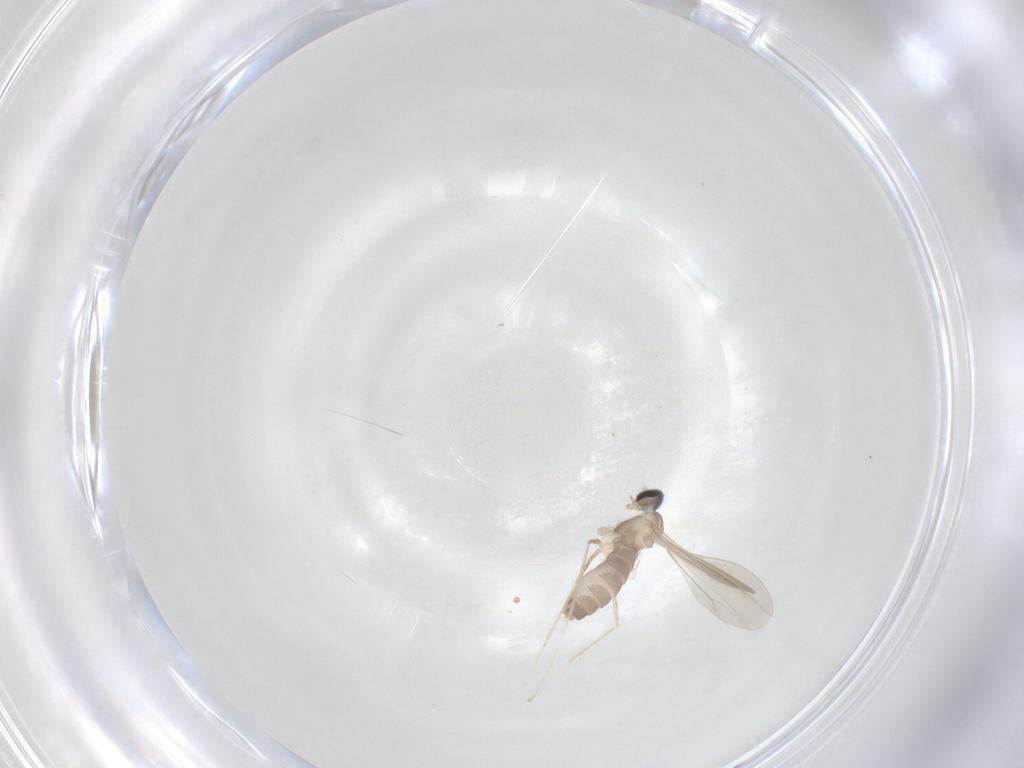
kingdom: Animalia
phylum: Arthropoda
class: Insecta
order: Diptera
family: Cecidomyiidae
